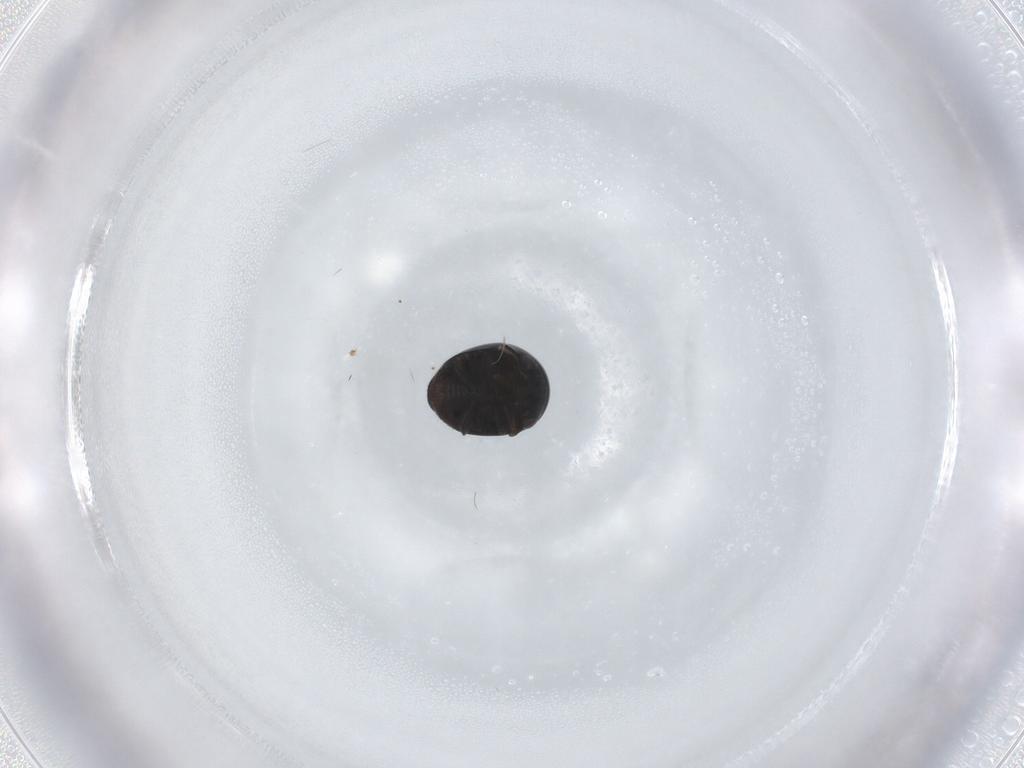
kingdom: Animalia
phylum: Arthropoda
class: Insecta
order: Coleoptera
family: Cybocephalidae
